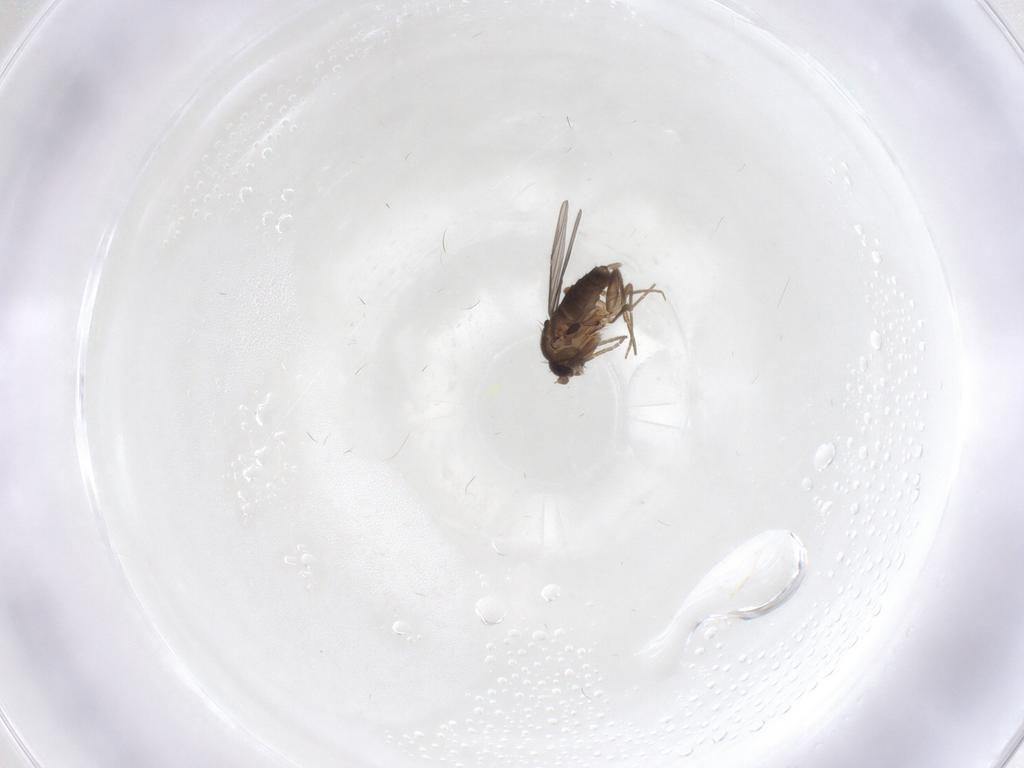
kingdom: Animalia
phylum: Arthropoda
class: Insecta
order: Diptera
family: Phoridae
